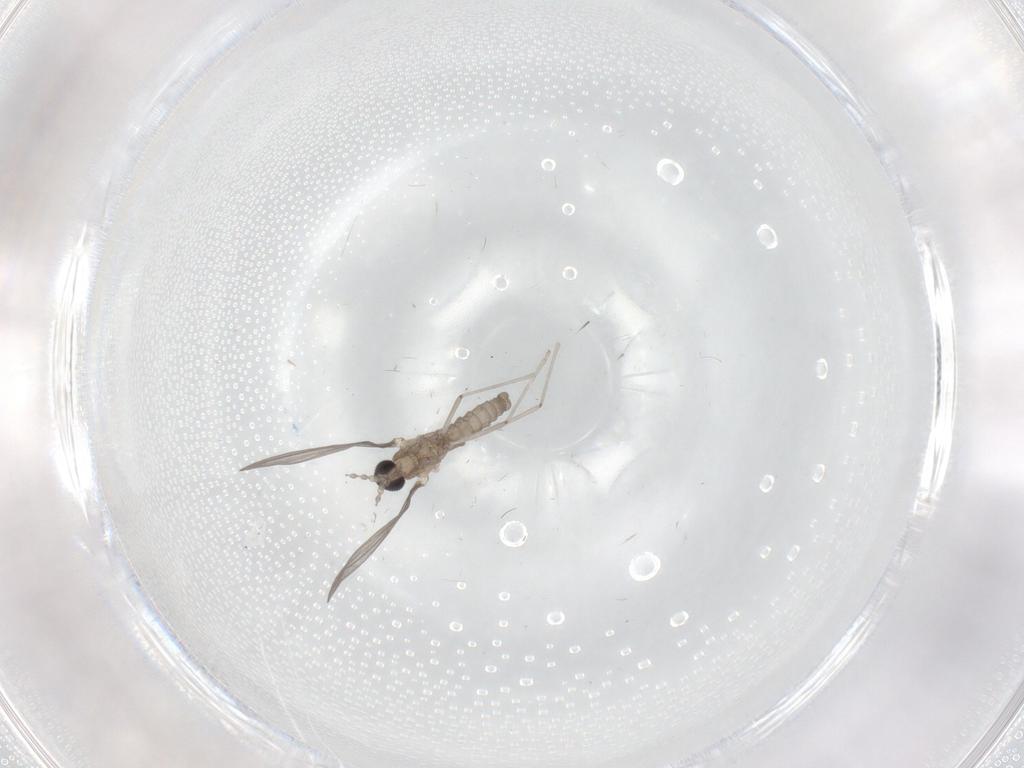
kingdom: Animalia
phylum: Arthropoda
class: Insecta
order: Diptera
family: Cecidomyiidae
